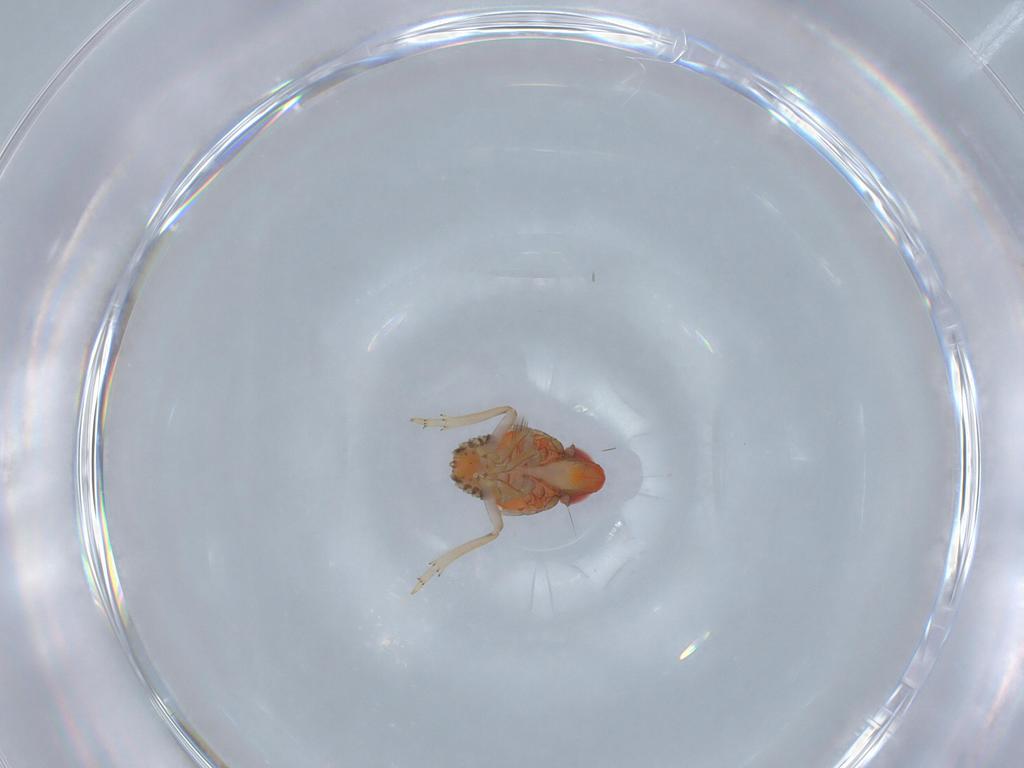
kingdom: Animalia
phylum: Arthropoda
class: Insecta
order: Hemiptera
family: Fulgoroidea_incertae_sedis
